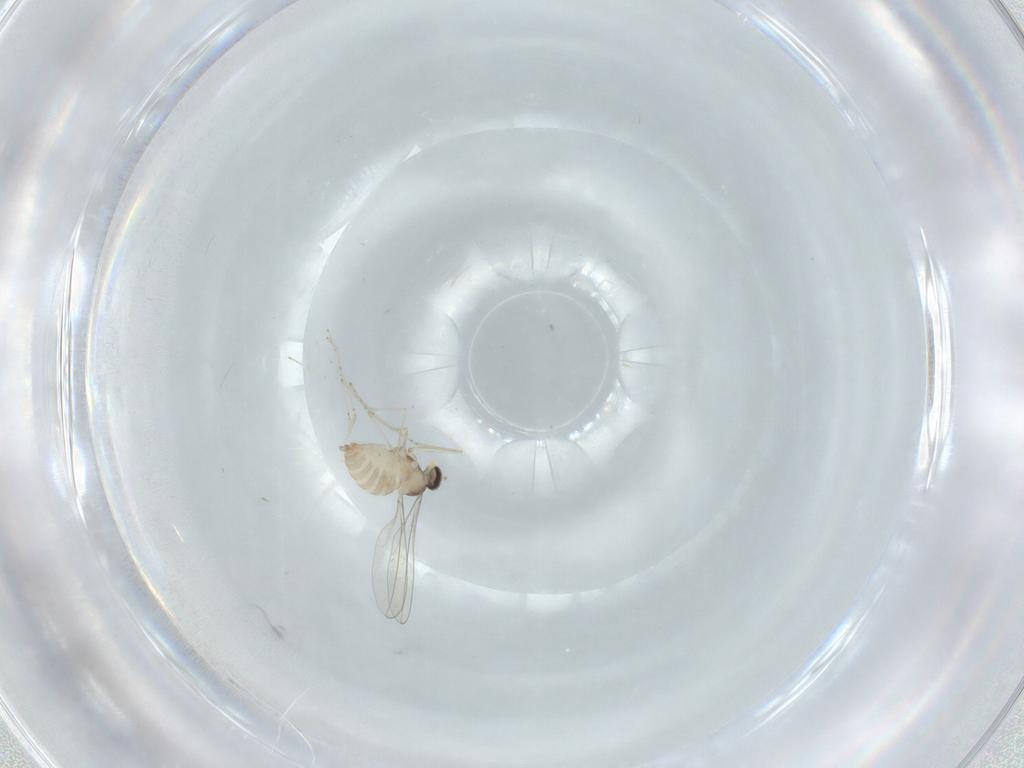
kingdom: Animalia
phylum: Arthropoda
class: Insecta
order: Diptera
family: Cecidomyiidae
